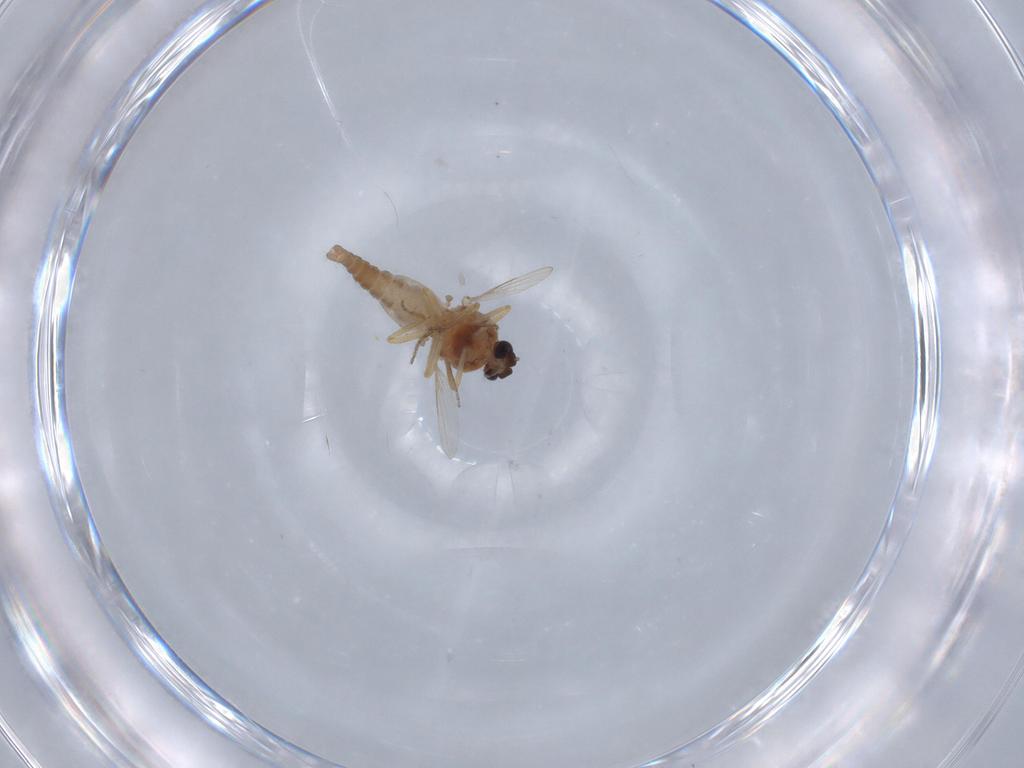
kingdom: Animalia
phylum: Arthropoda
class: Insecta
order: Diptera
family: Ceratopogonidae
